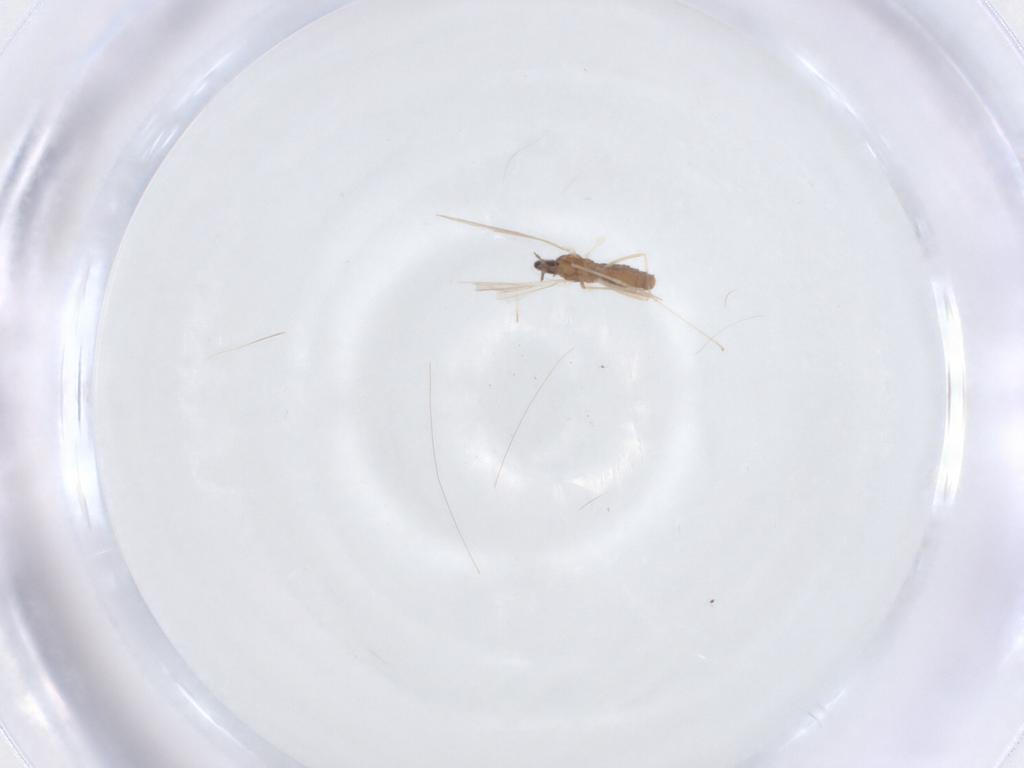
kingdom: Animalia
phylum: Arthropoda
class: Insecta
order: Diptera
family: Cecidomyiidae
